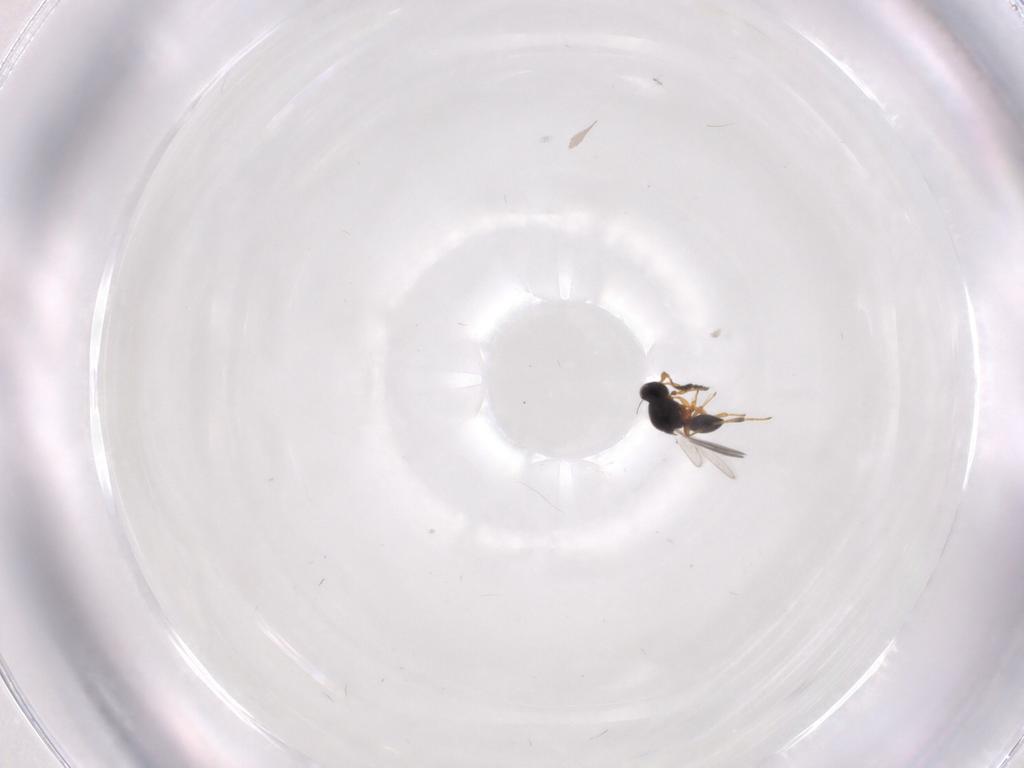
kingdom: Animalia
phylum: Arthropoda
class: Insecta
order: Hymenoptera
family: Platygastridae
